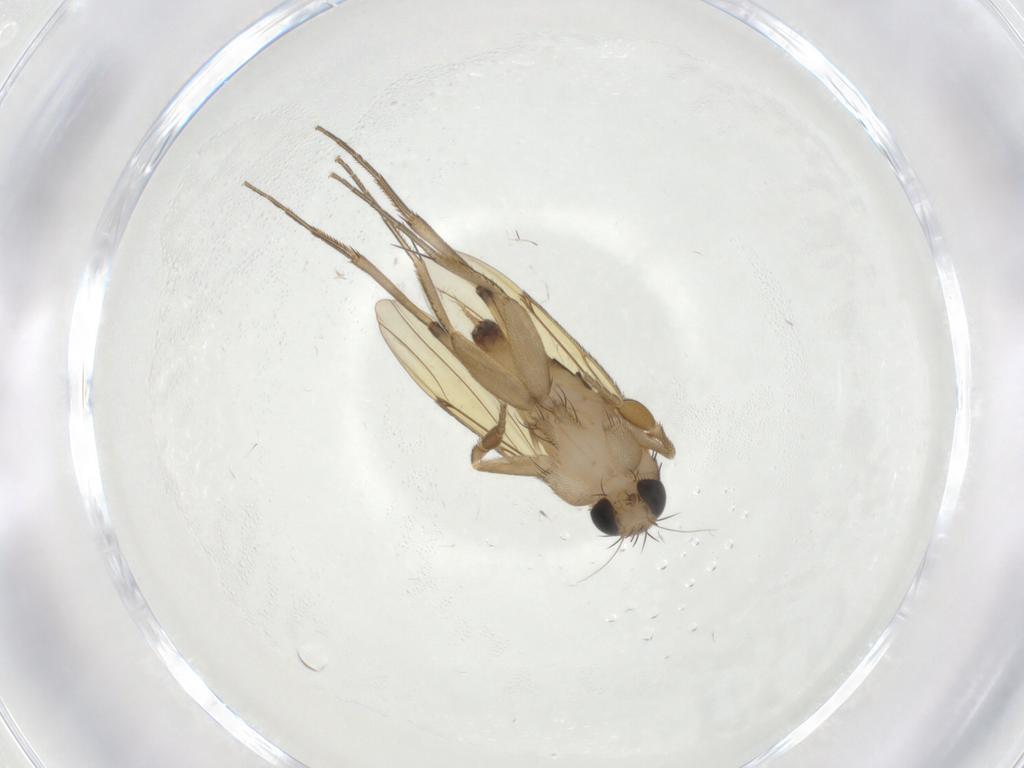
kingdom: Animalia
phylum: Arthropoda
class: Insecta
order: Diptera
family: Phoridae
